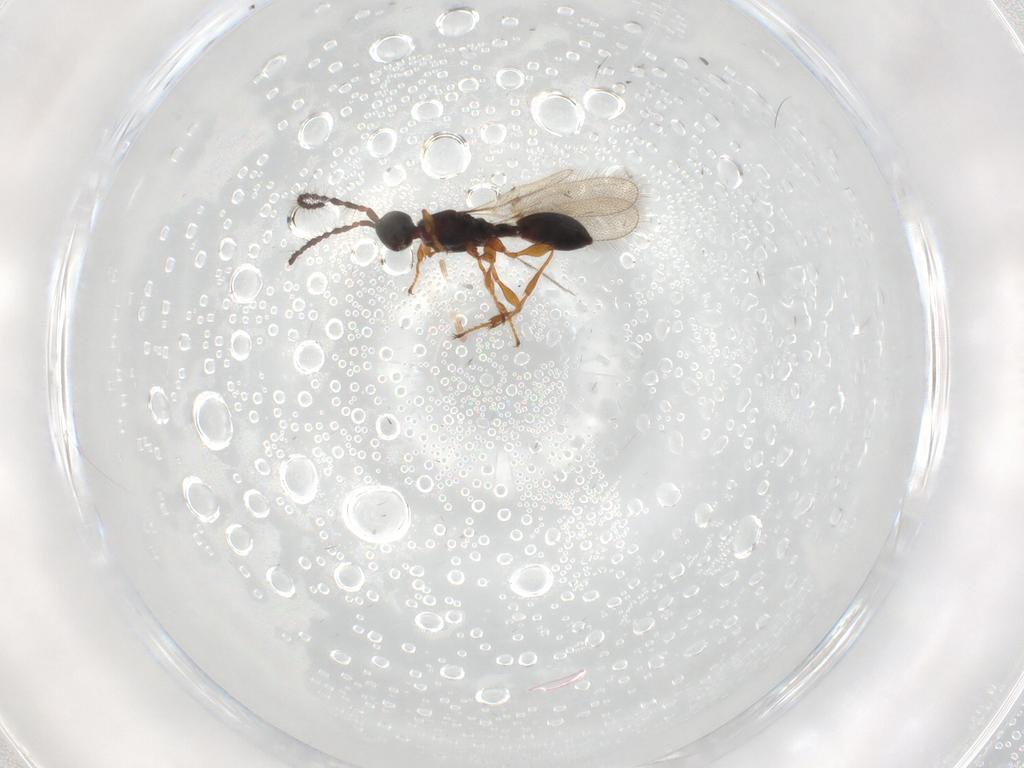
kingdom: Animalia
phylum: Arthropoda
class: Insecta
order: Hymenoptera
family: Diapriidae
